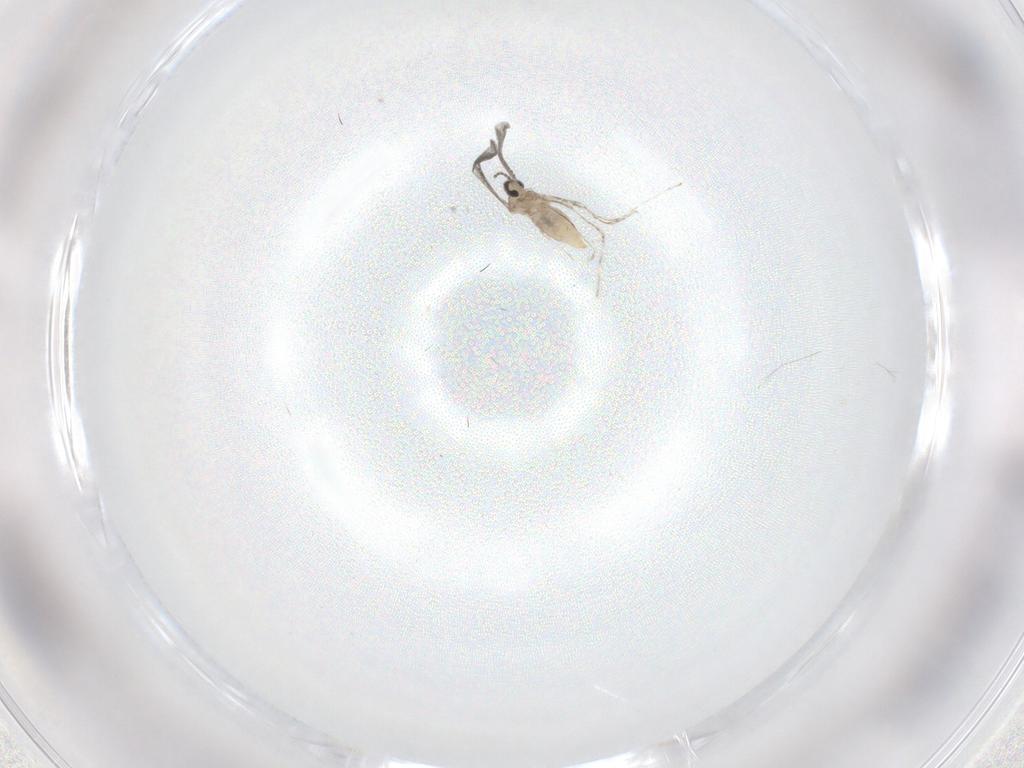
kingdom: Animalia
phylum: Arthropoda
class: Insecta
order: Diptera
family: Cecidomyiidae
